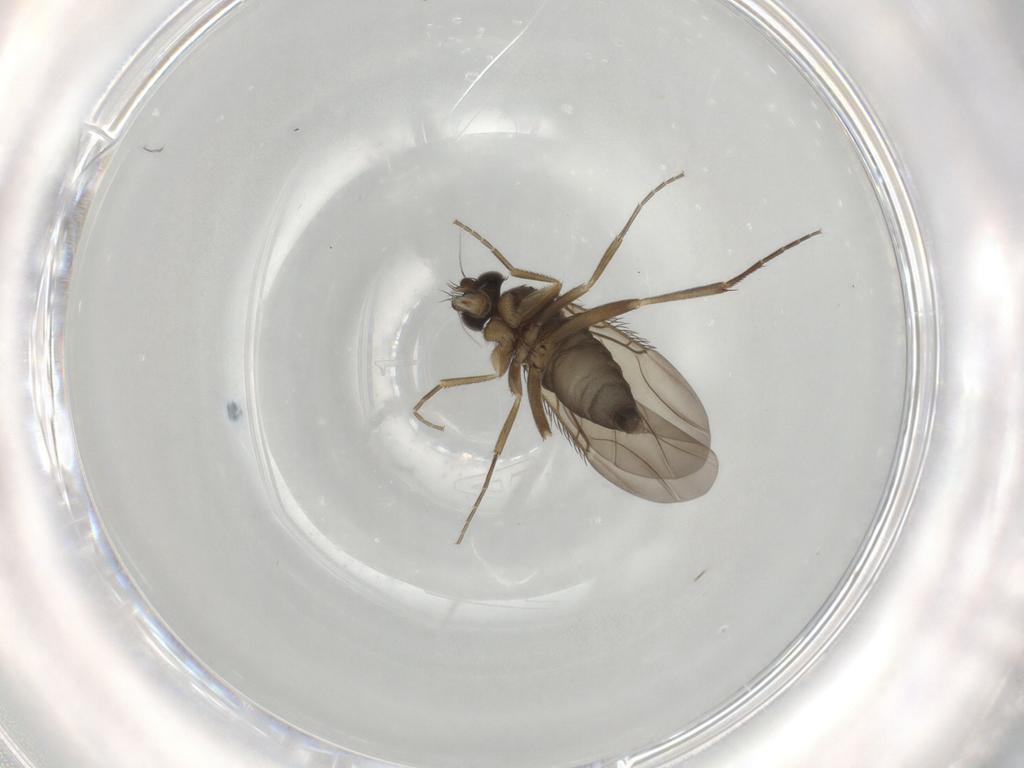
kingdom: Animalia
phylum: Arthropoda
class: Insecta
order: Diptera
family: Phoridae
